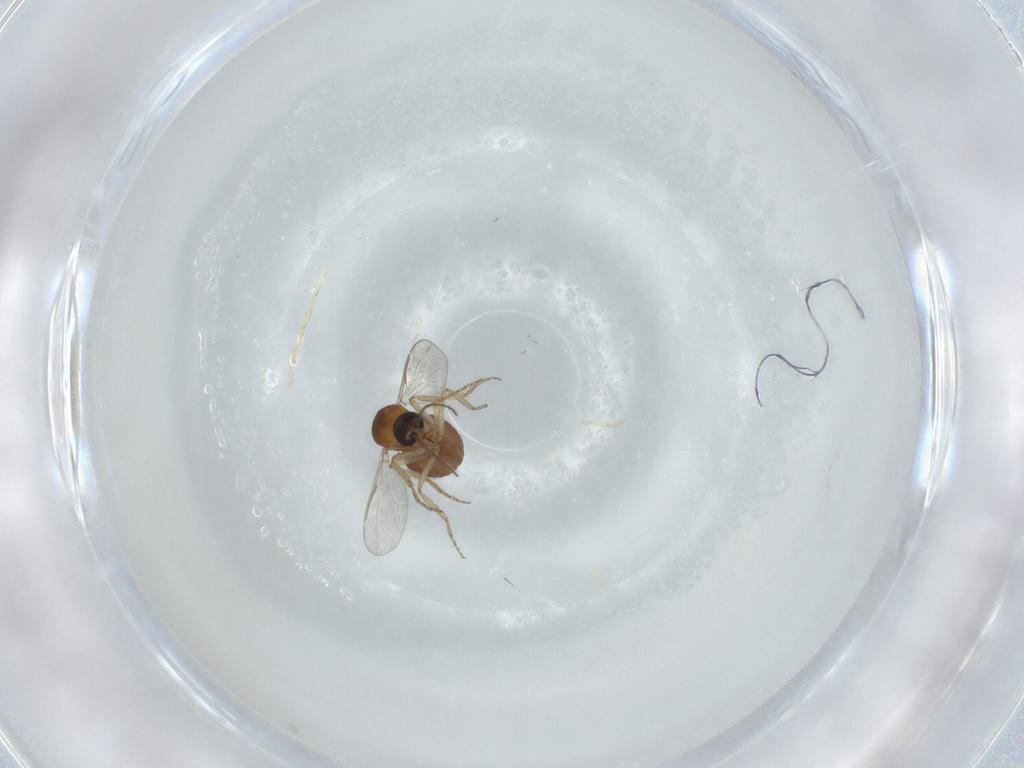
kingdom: Animalia
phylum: Arthropoda
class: Insecta
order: Diptera
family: Ceratopogonidae
